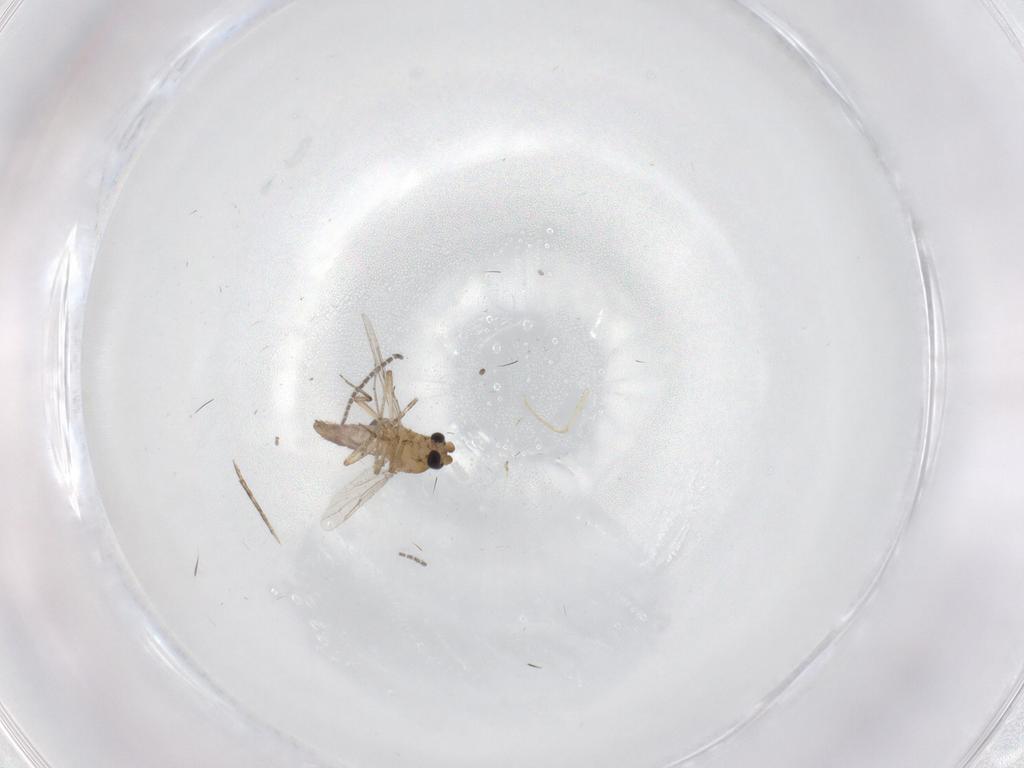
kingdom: Animalia
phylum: Arthropoda
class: Insecta
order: Diptera
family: Sciaridae
